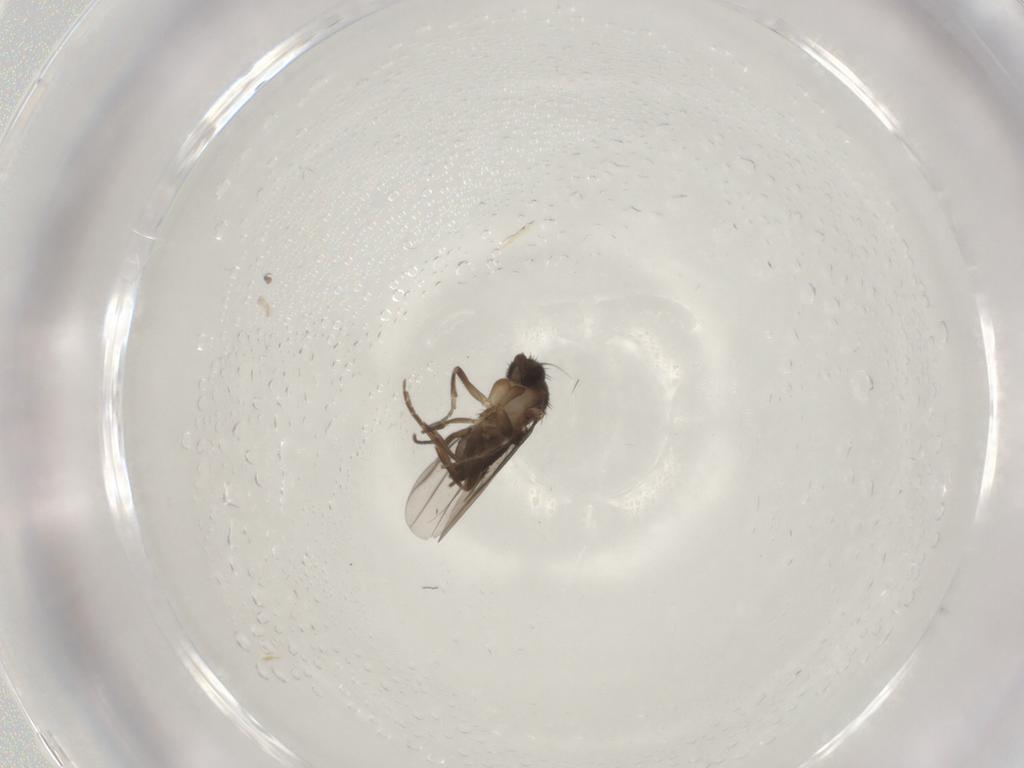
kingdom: Animalia
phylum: Arthropoda
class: Insecta
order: Diptera
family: Phoridae
